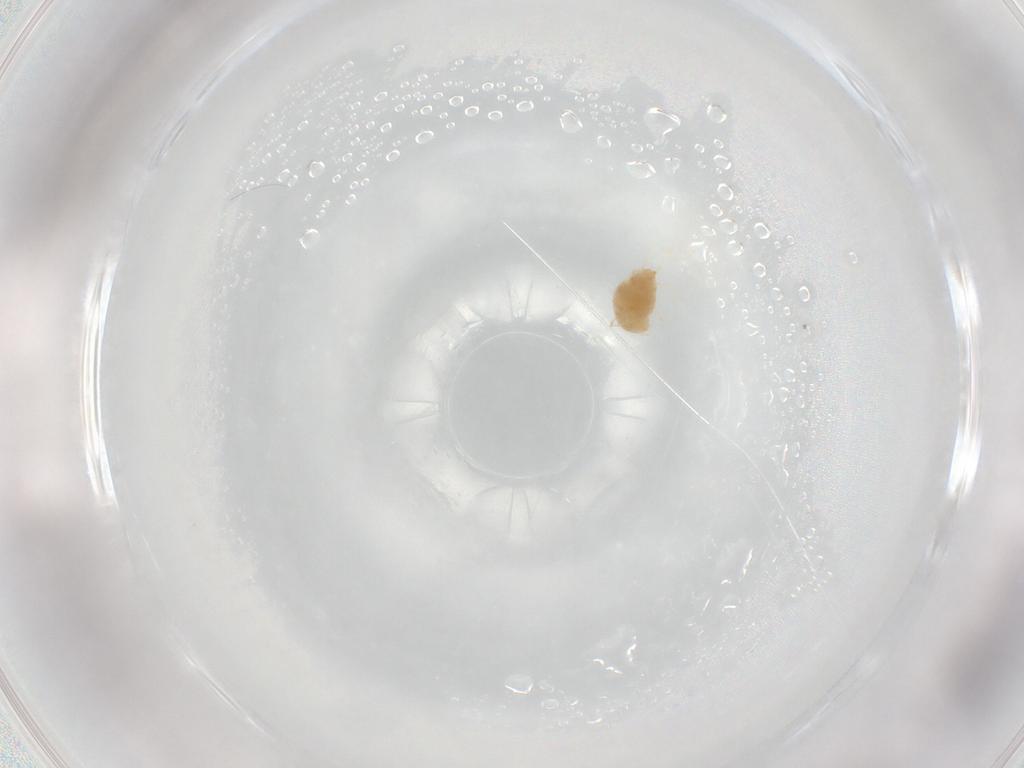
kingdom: Animalia
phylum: Arthropoda
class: Arachnida
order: Trombidiformes
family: Tetranychidae
